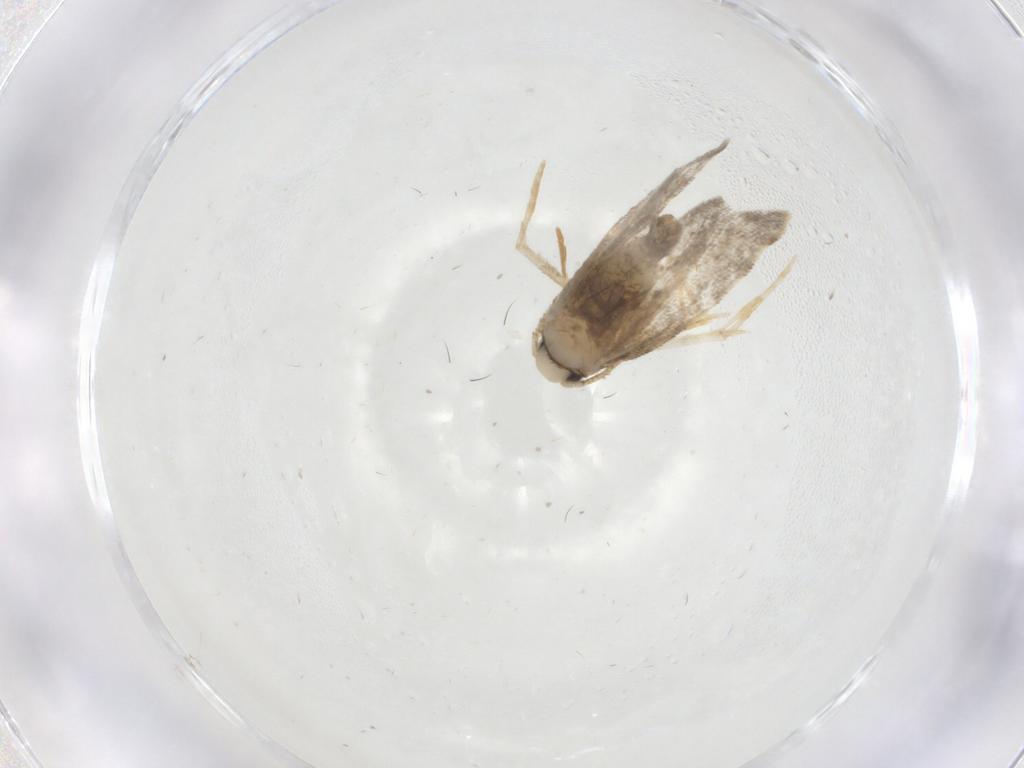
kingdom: Animalia
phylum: Arthropoda
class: Insecta
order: Lepidoptera
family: Psychidae
